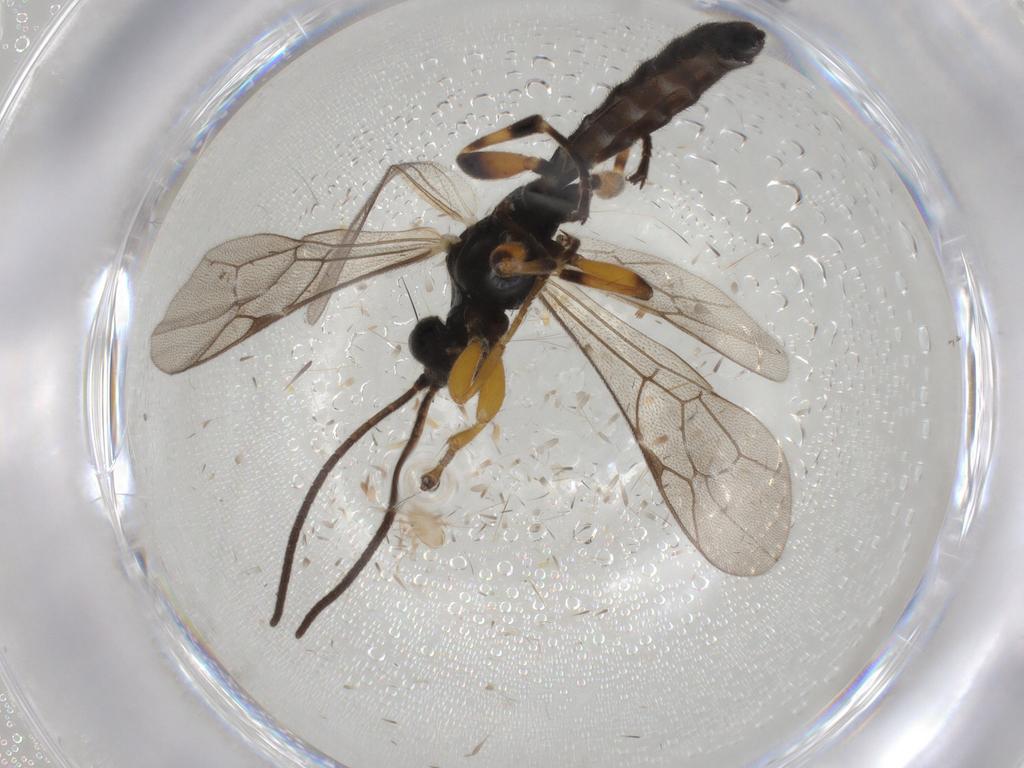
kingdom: Animalia
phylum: Arthropoda
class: Insecta
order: Hymenoptera
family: Ichneumonidae
